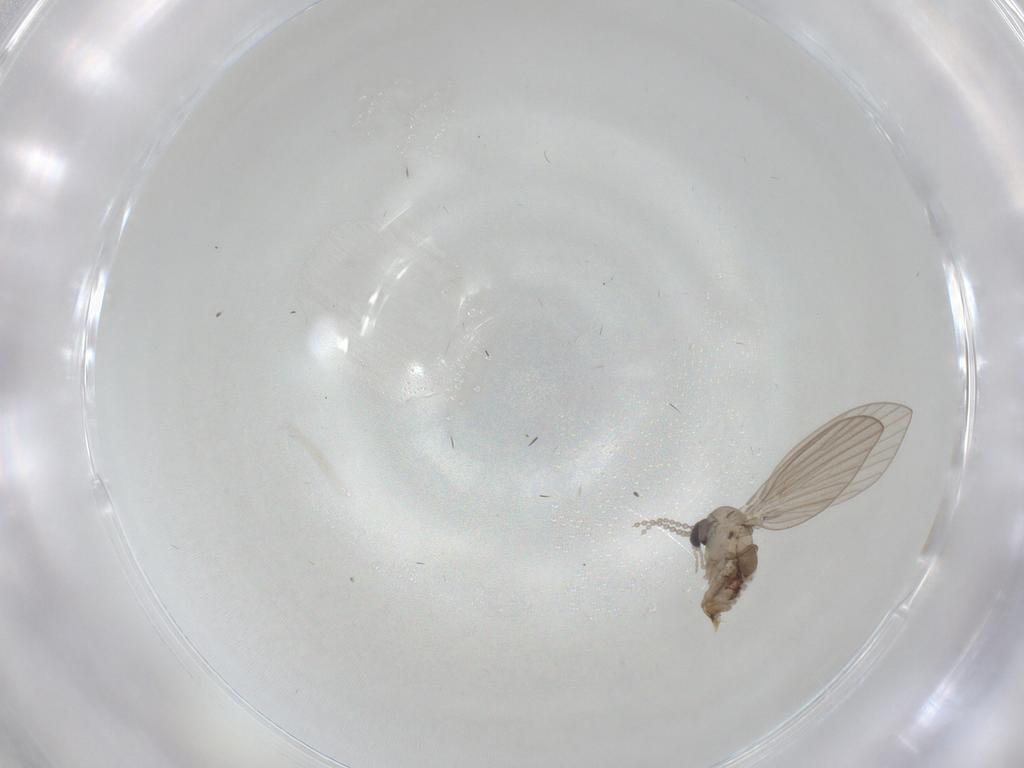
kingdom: Animalia
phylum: Arthropoda
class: Insecta
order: Diptera
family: Psychodidae
